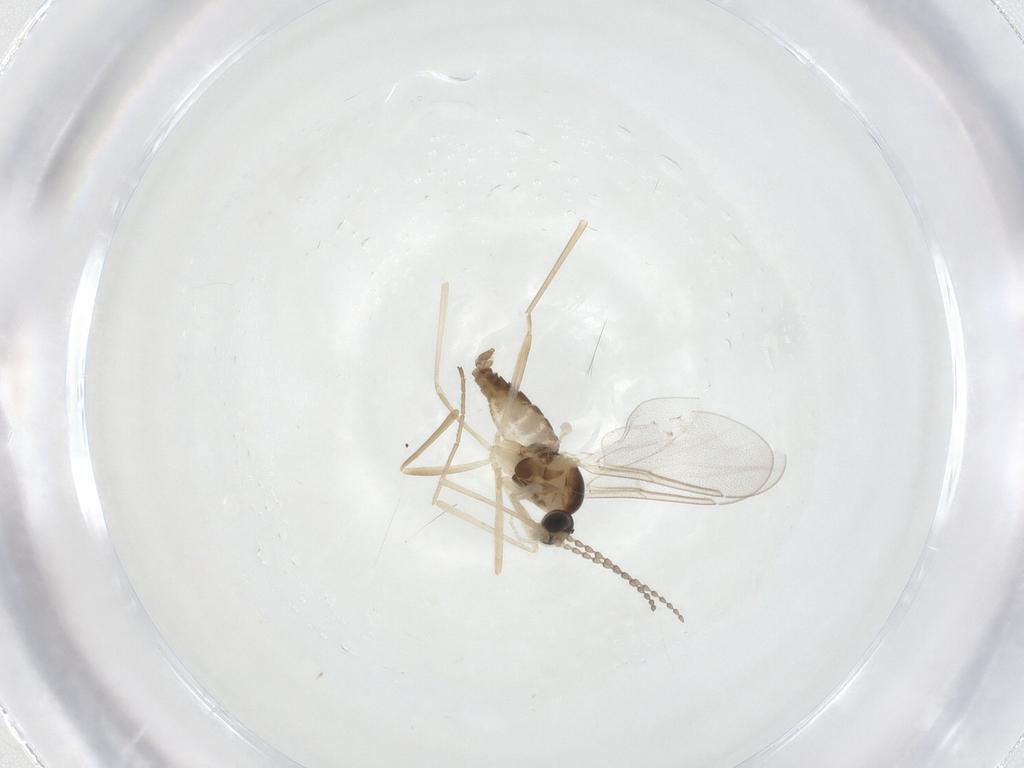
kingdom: Animalia
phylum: Arthropoda
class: Insecta
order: Diptera
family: Cecidomyiidae
